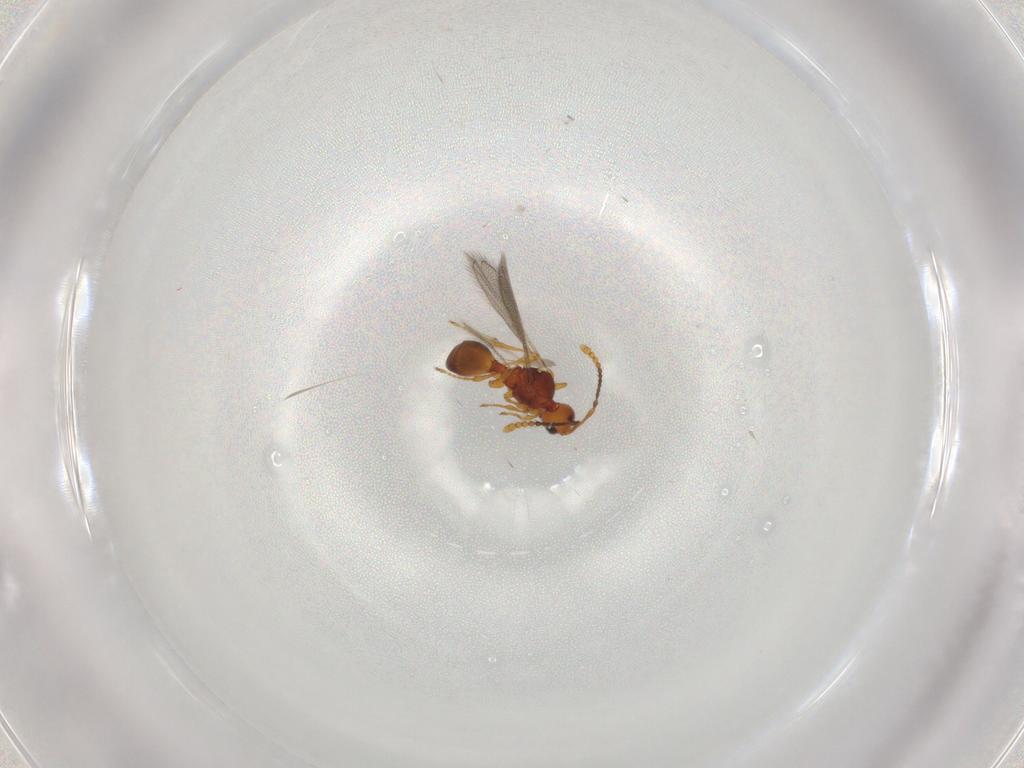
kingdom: Animalia
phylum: Arthropoda
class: Insecta
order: Hymenoptera
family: Diapriidae
